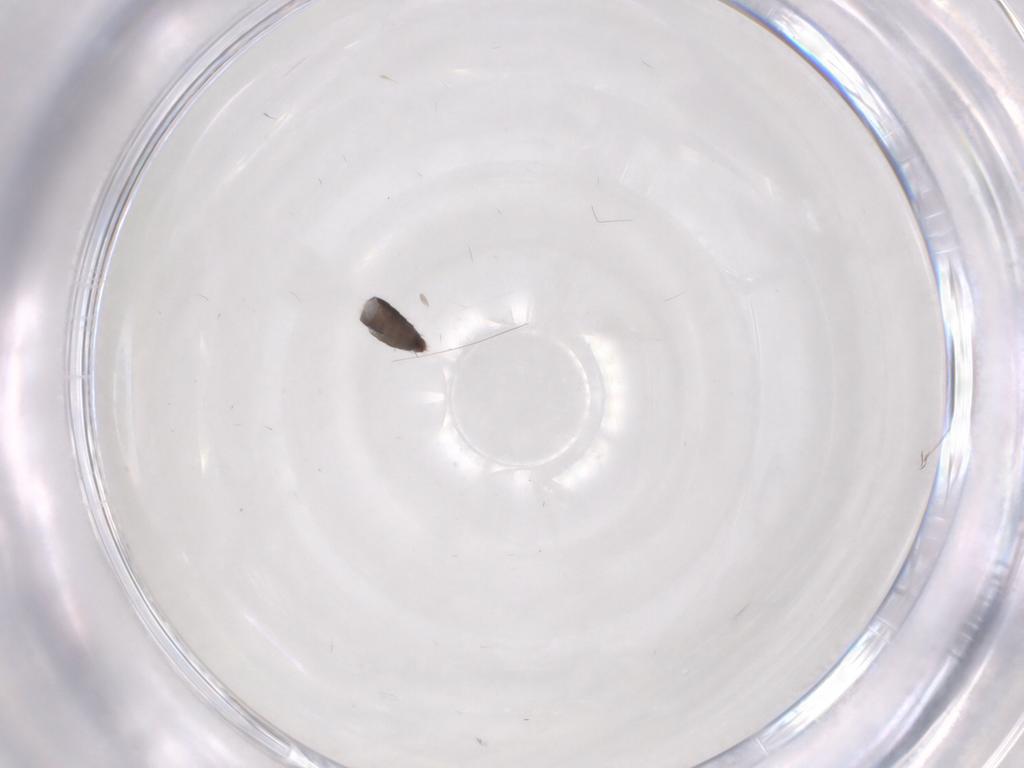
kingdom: Animalia
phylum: Arthropoda
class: Insecta
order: Diptera
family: Phoridae
